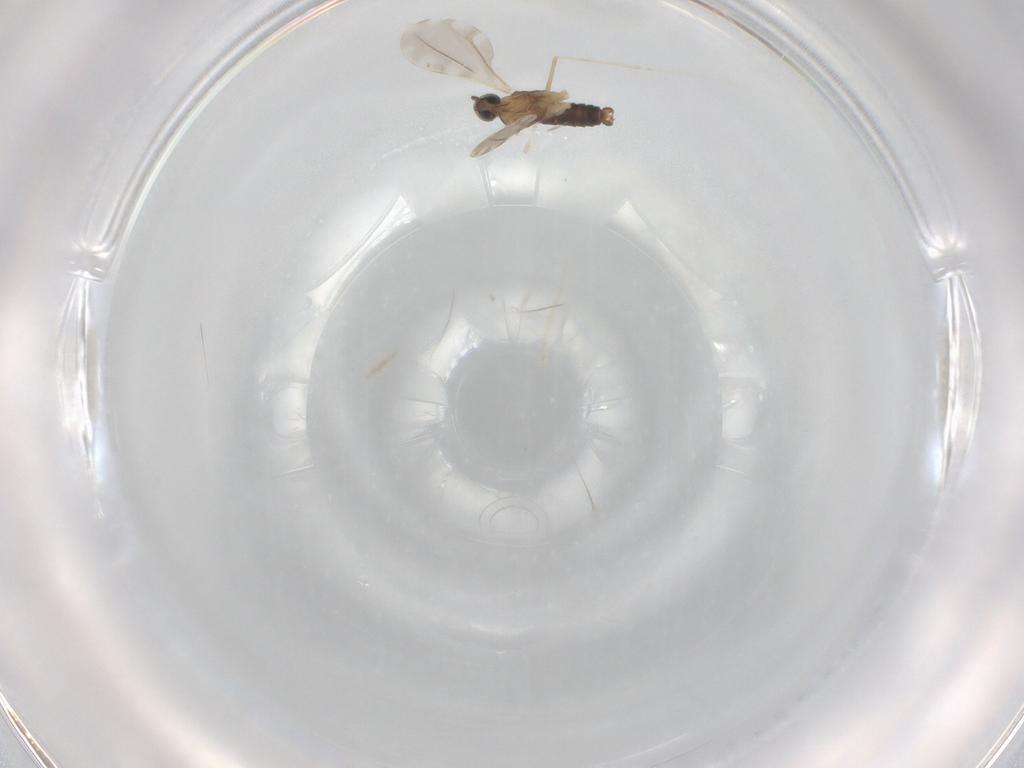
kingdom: Animalia
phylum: Arthropoda
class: Insecta
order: Diptera
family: Cecidomyiidae
